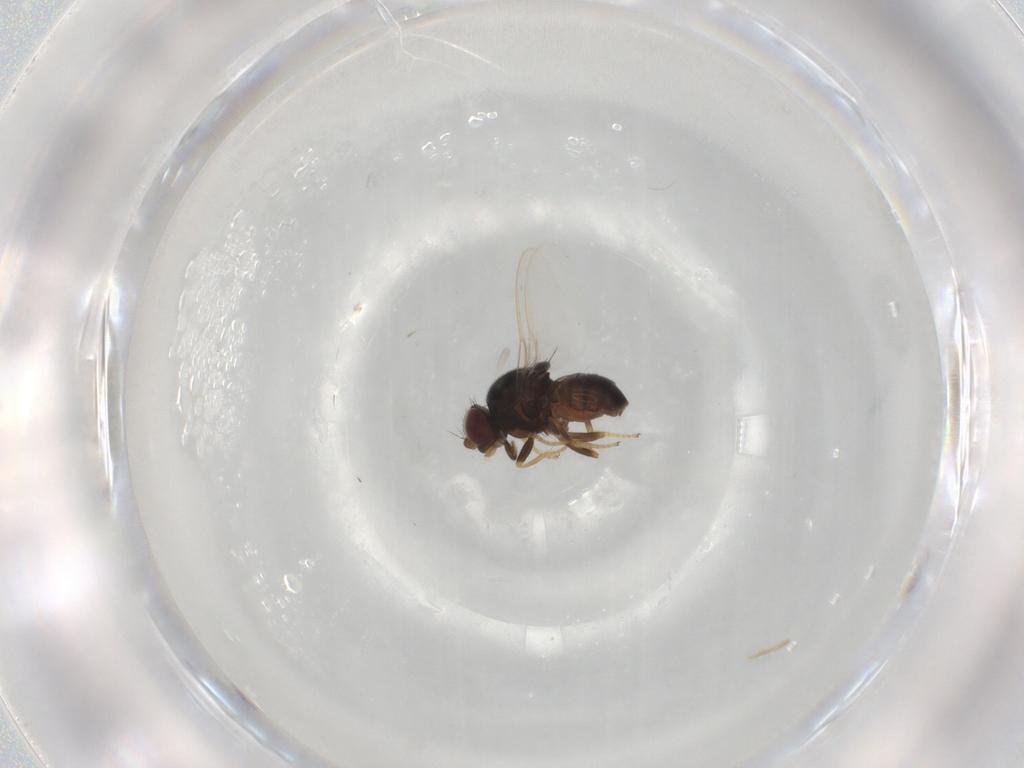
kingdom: Animalia
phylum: Arthropoda
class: Insecta
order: Diptera
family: Chloropidae
